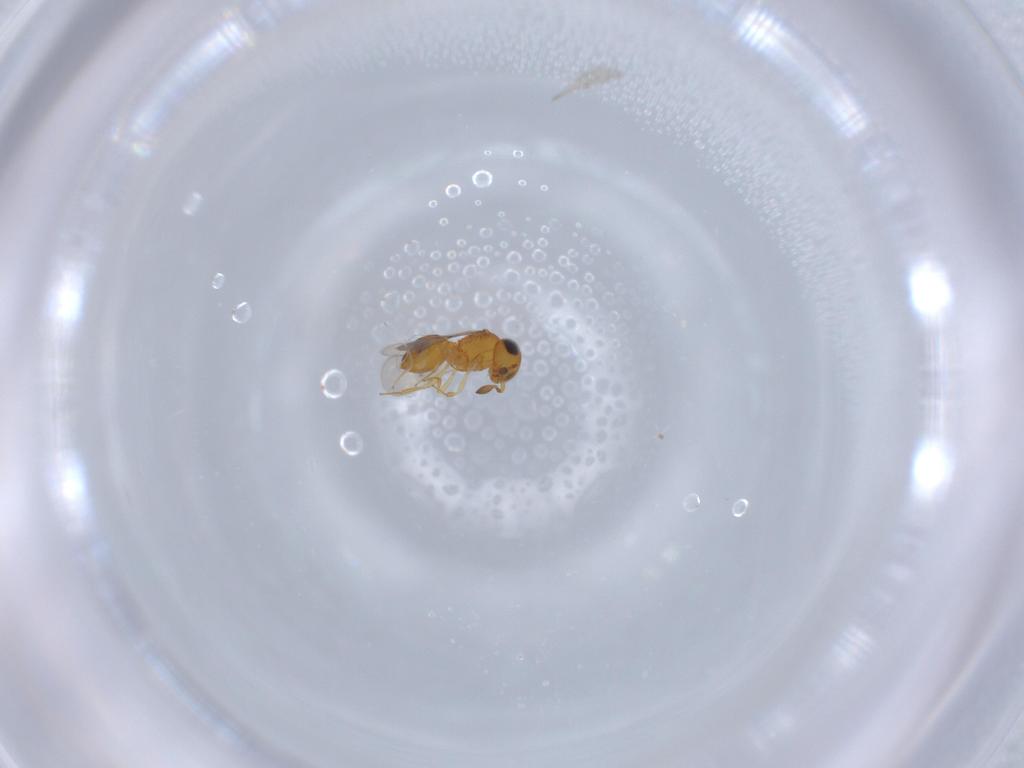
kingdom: Animalia
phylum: Arthropoda
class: Insecta
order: Hymenoptera
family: Scelionidae
